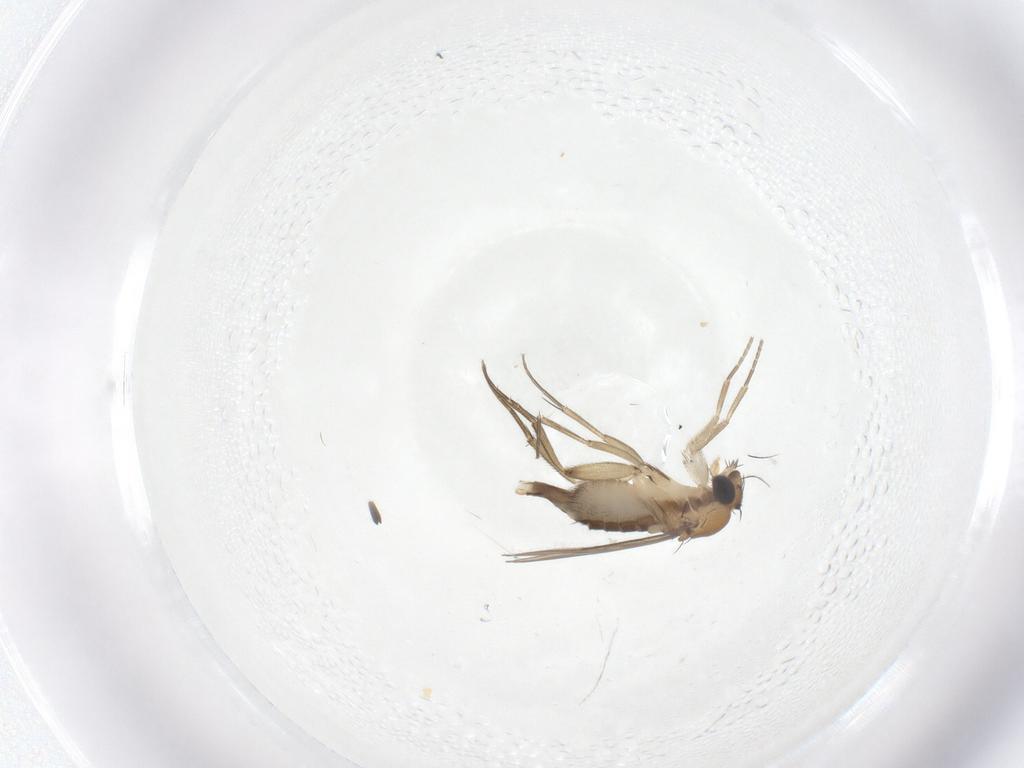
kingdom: Animalia
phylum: Arthropoda
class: Insecta
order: Diptera
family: Phoridae
